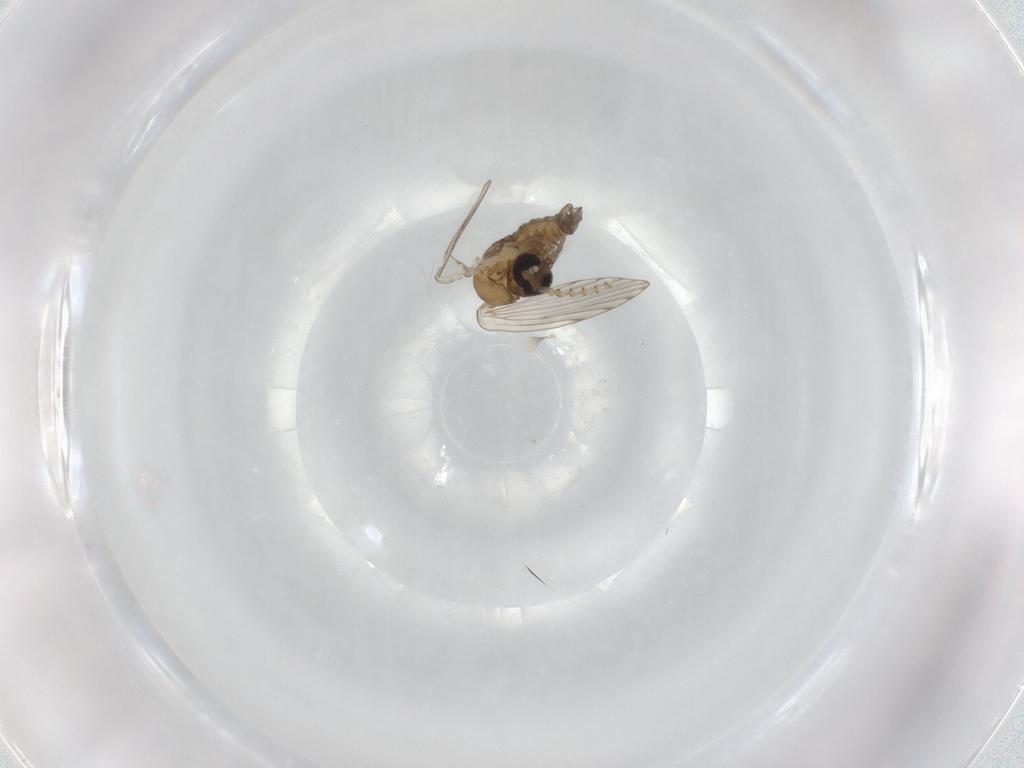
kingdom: Animalia
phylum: Arthropoda
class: Insecta
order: Diptera
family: Psychodidae
